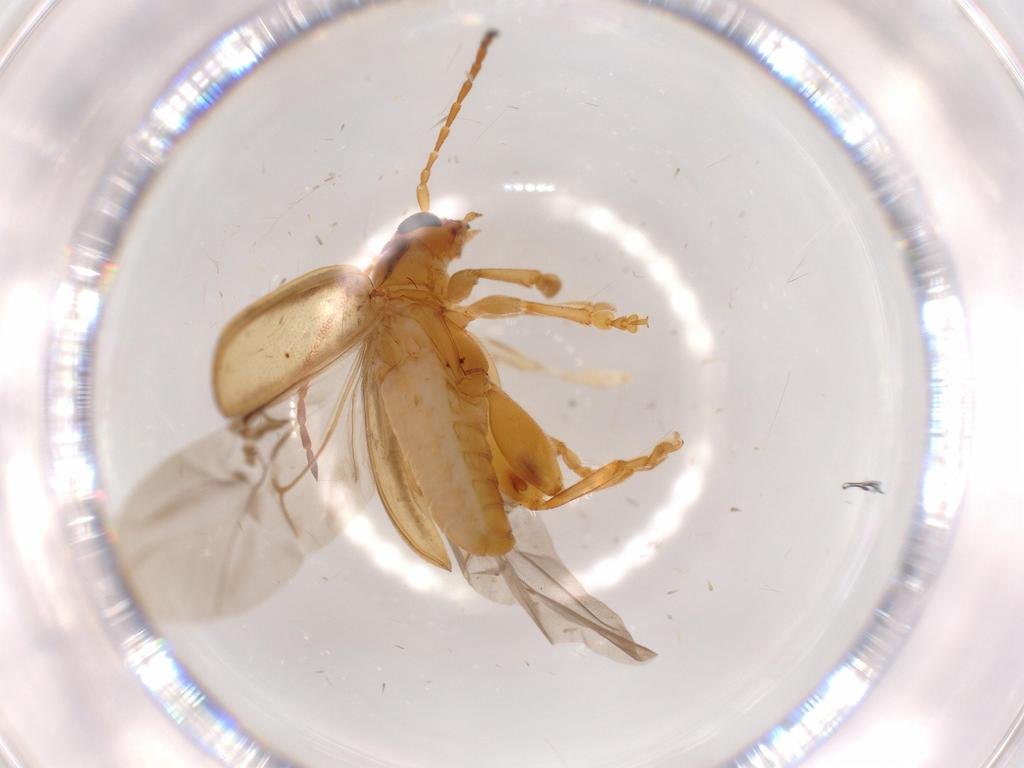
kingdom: Animalia
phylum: Arthropoda
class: Insecta
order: Coleoptera
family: Chrysomelidae
